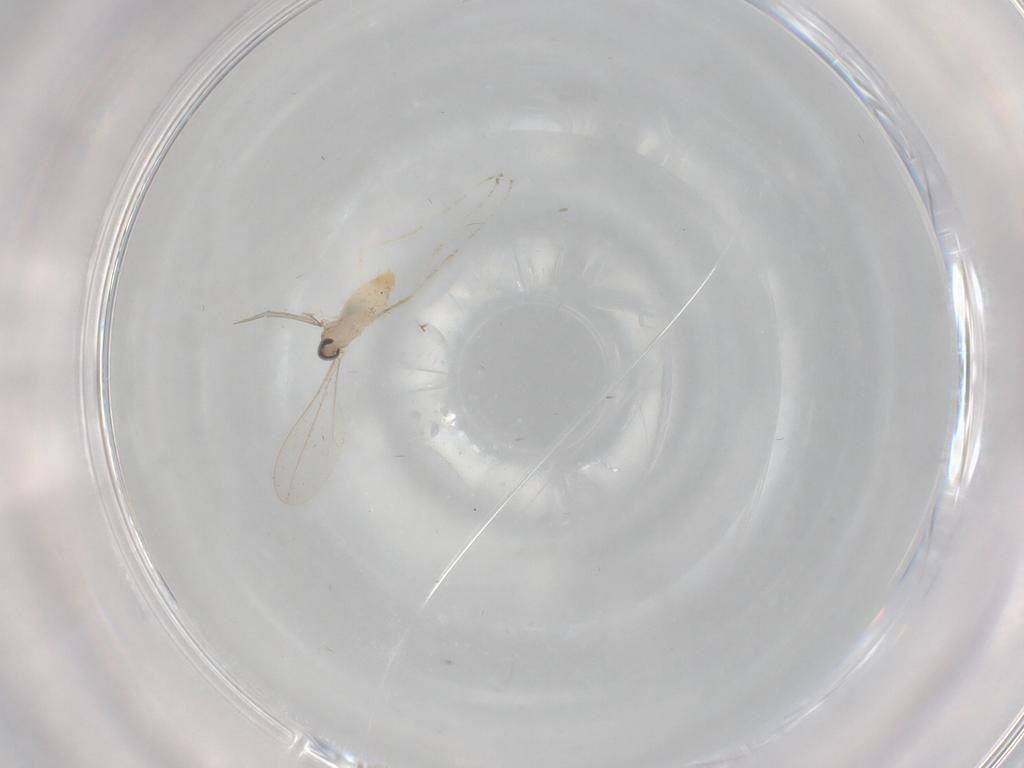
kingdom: Animalia
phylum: Arthropoda
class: Insecta
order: Diptera
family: Cecidomyiidae
